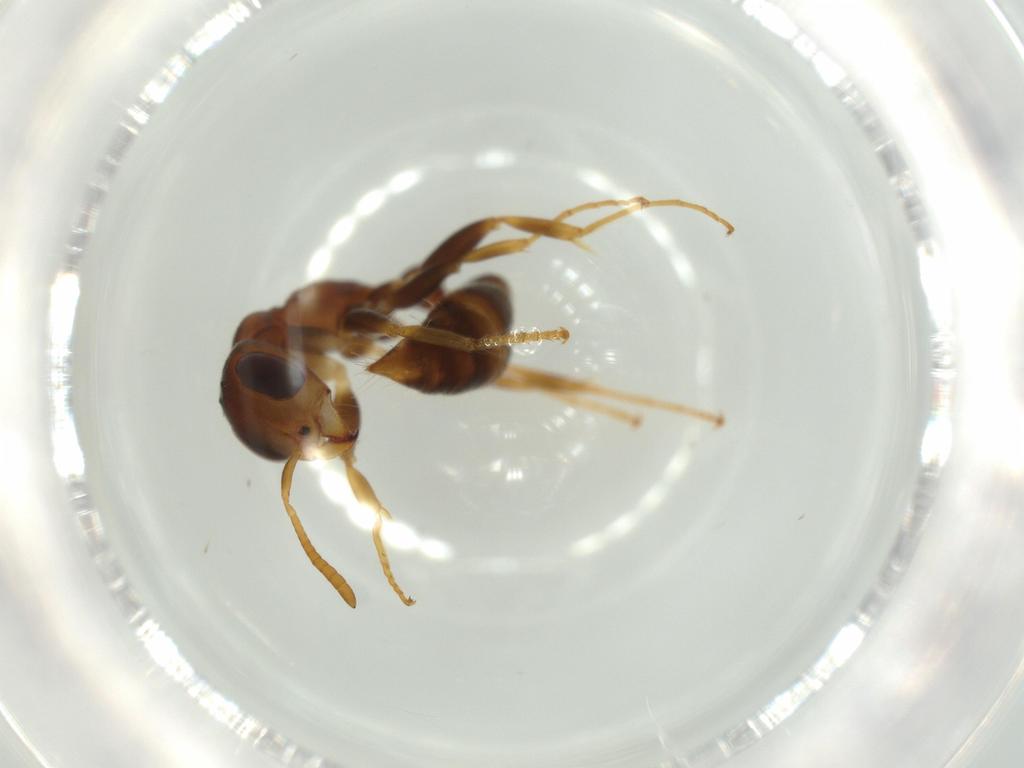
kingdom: Animalia
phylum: Arthropoda
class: Insecta
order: Hymenoptera
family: Formicidae
